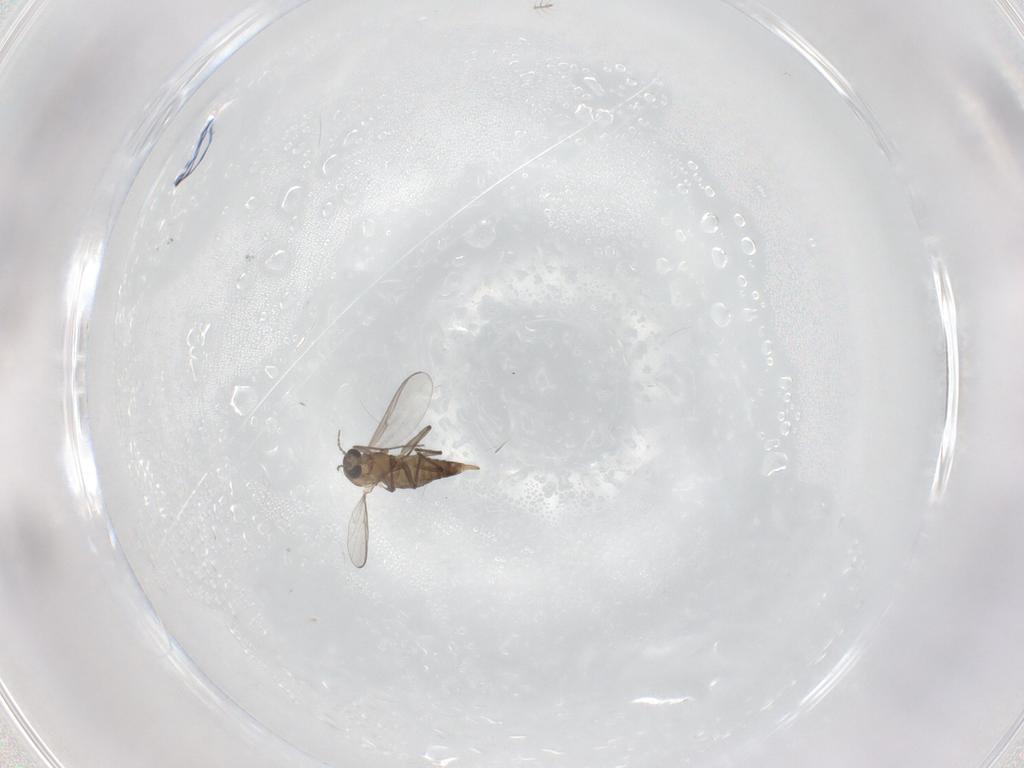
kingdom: Animalia
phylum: Arthropoda
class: Insecta
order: Diptera
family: Chironomidae
